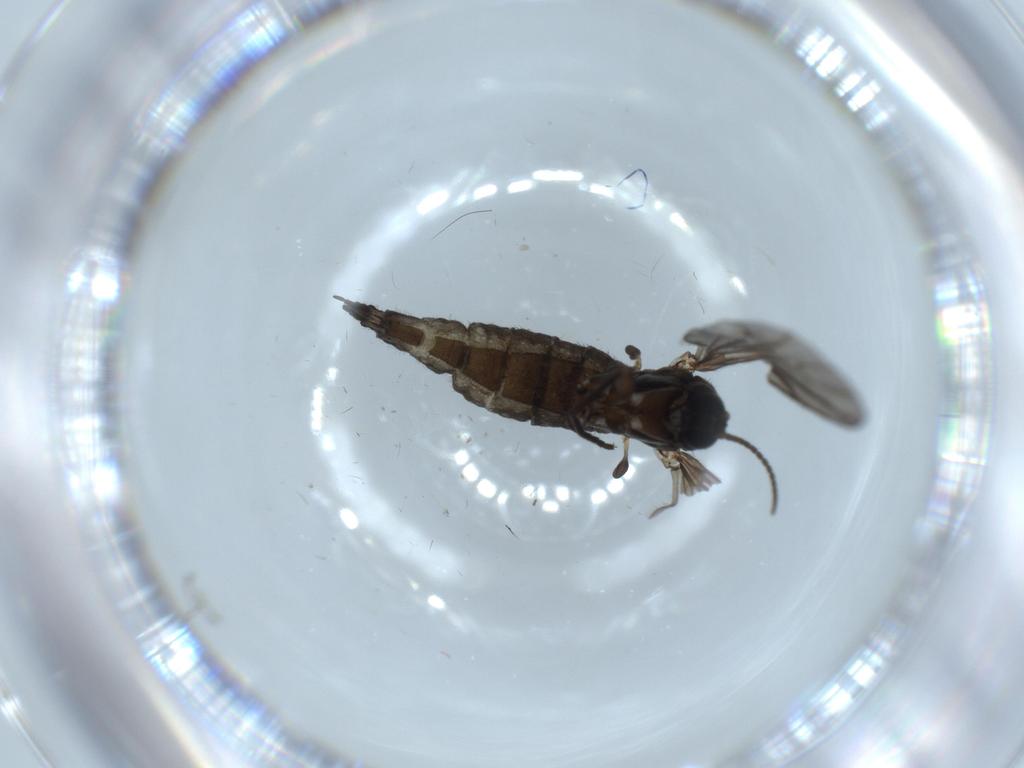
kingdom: Animalia
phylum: Arthropoda
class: Insecta
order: Diptera
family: Sciaridae
